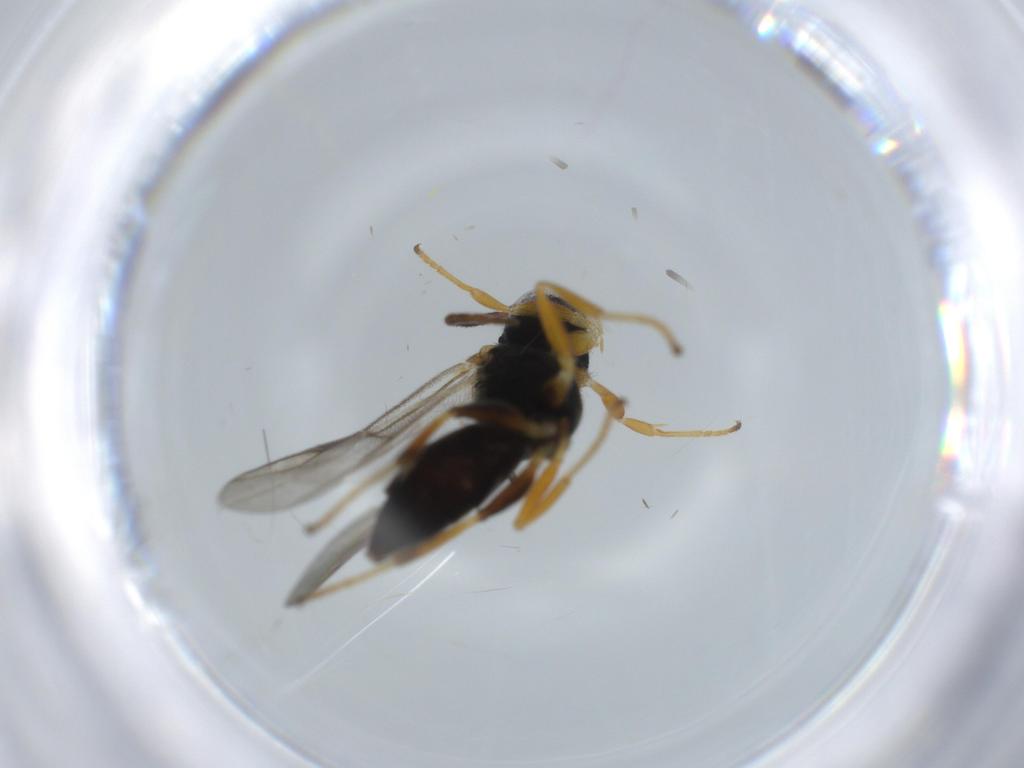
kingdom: Animalia
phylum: Arthropoda
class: Insecta
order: Hymenoptera
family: Dryinidae
